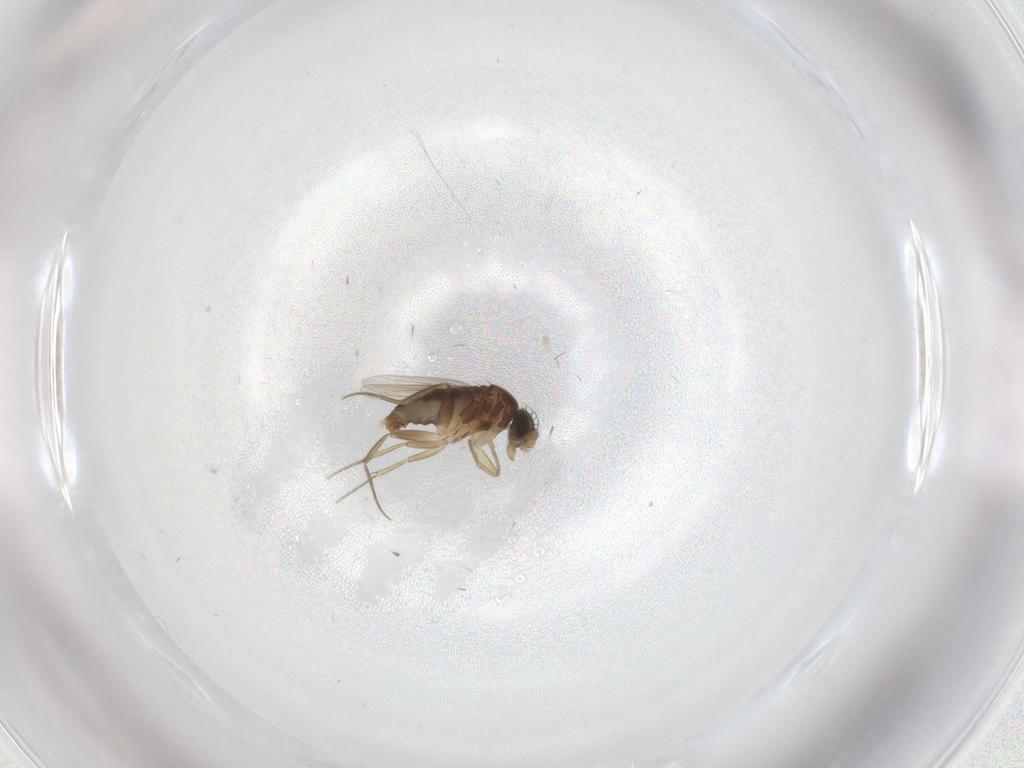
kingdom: Animalia
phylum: Arthropoda
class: Insecta
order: Diptera
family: Phoridae
